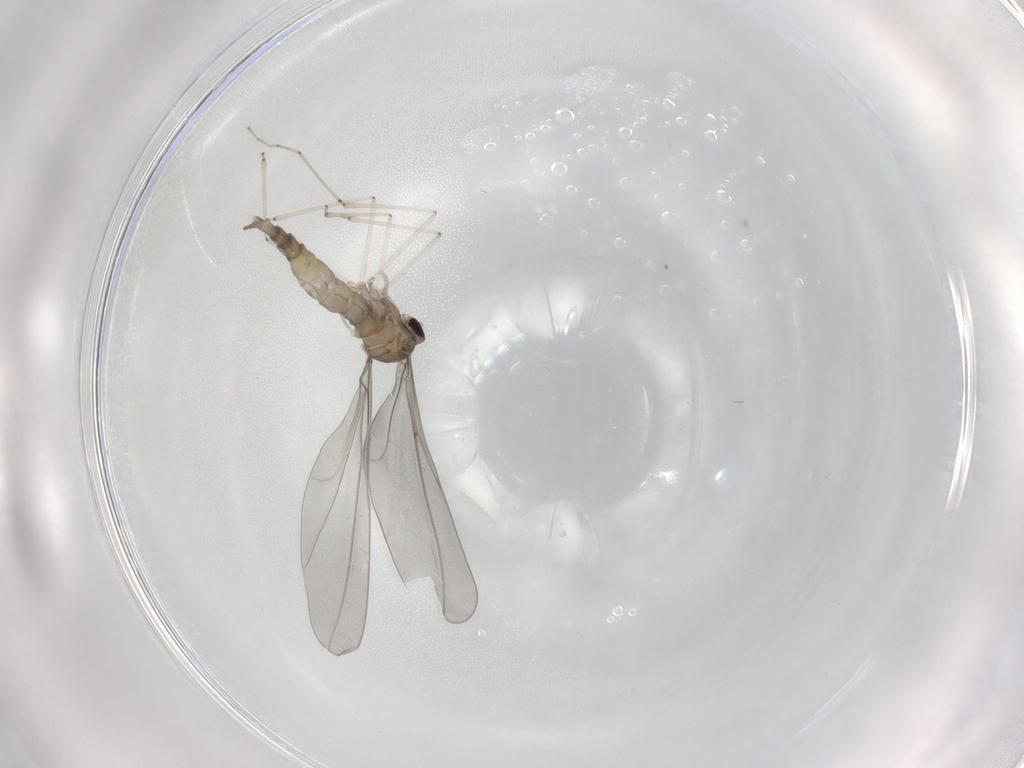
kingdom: Animalia
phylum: Arthropoda
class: Insecta
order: Diptera
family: Cecidomyiidae
